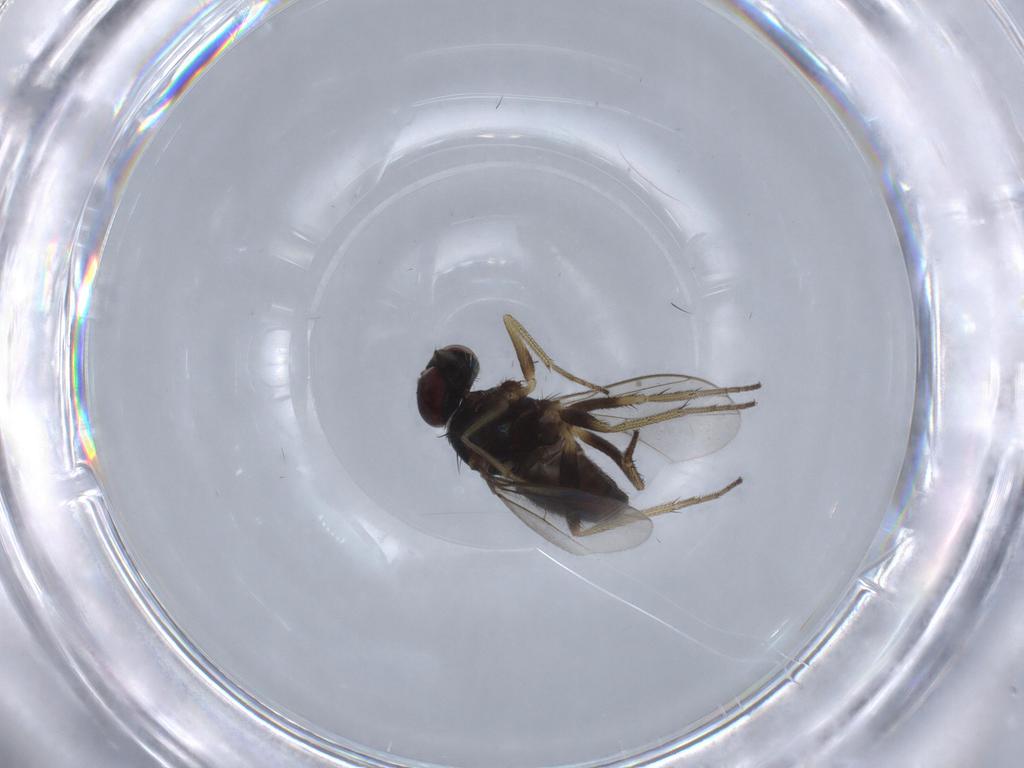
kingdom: Animalia
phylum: Arthropoda
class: Insecta
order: Diptera
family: Dolichopodidae
